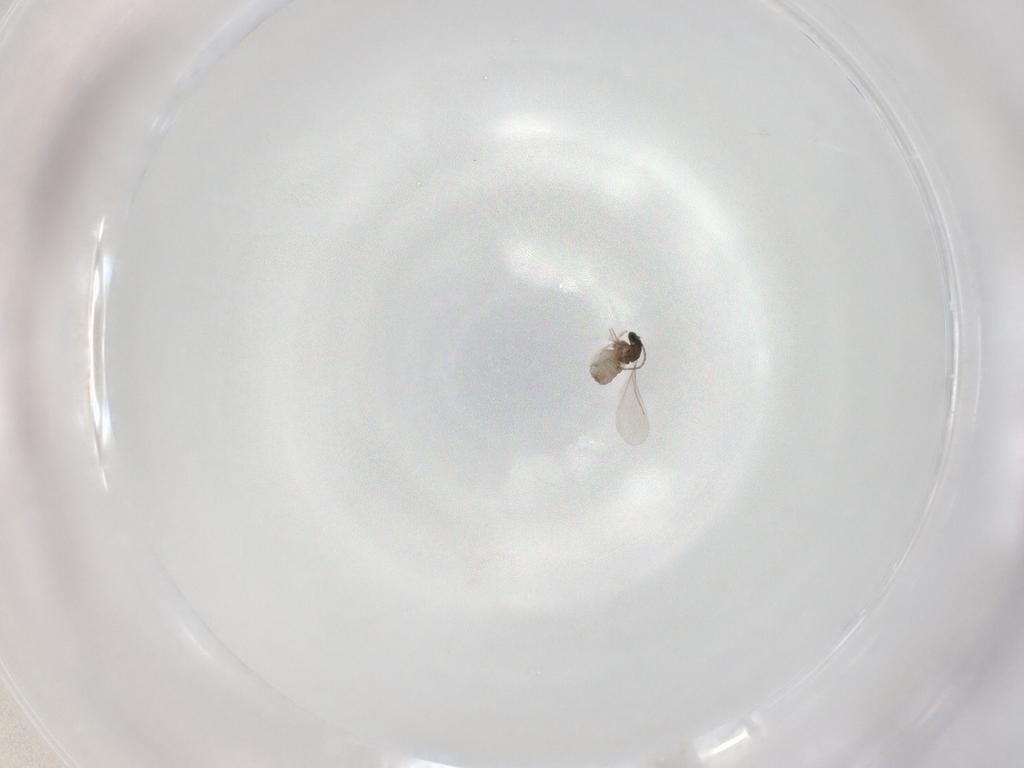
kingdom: Animalia
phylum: Arthropoda
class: Insecta
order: Diptera
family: Cecidomyiidae
